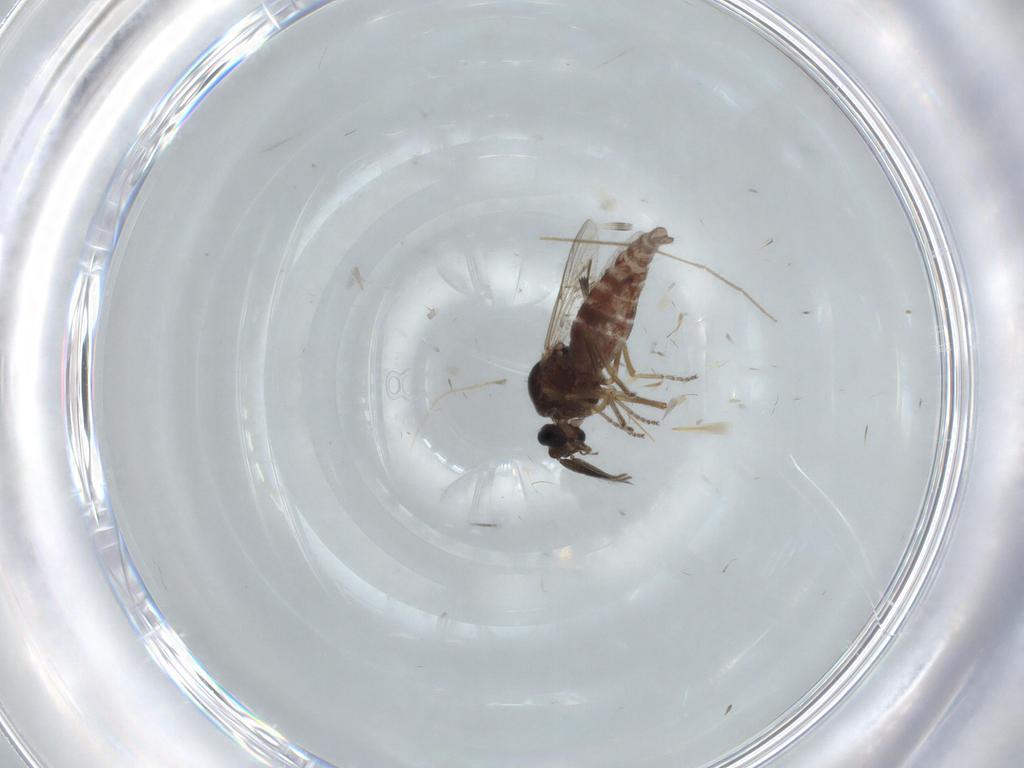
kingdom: Animalia
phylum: Arthropoda
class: Insecta
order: Diptera
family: Ceratopogonidae
